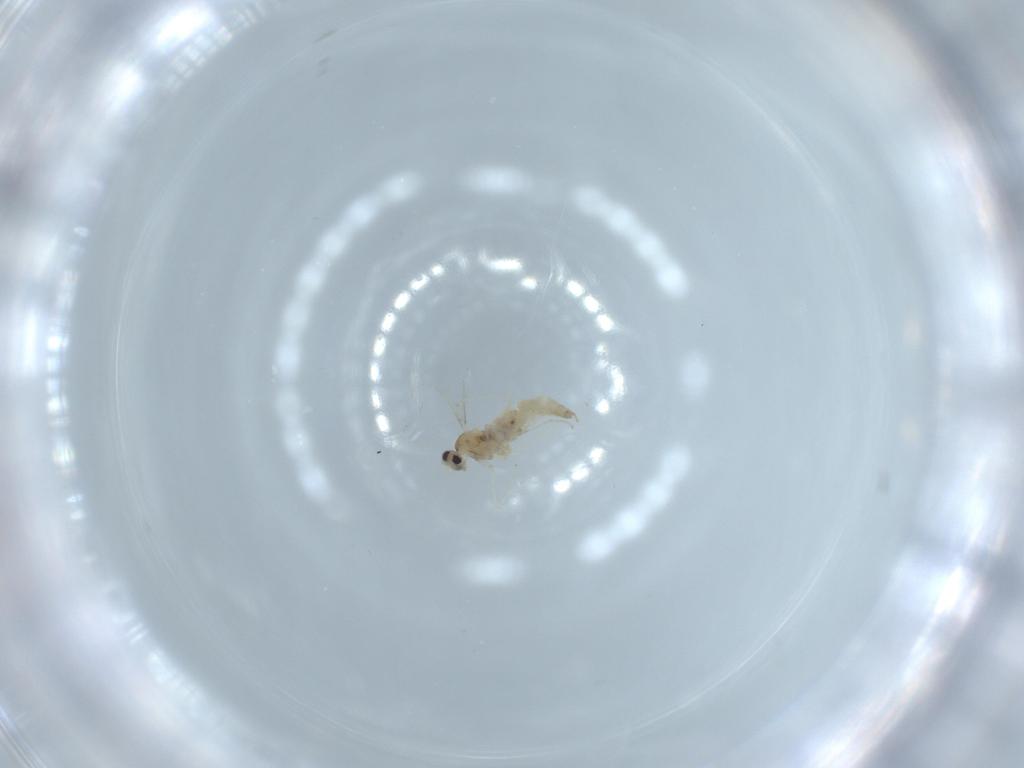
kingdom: Animalia
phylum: Arthropoda
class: Insecta
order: Diptera
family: Cecidomyiidae
